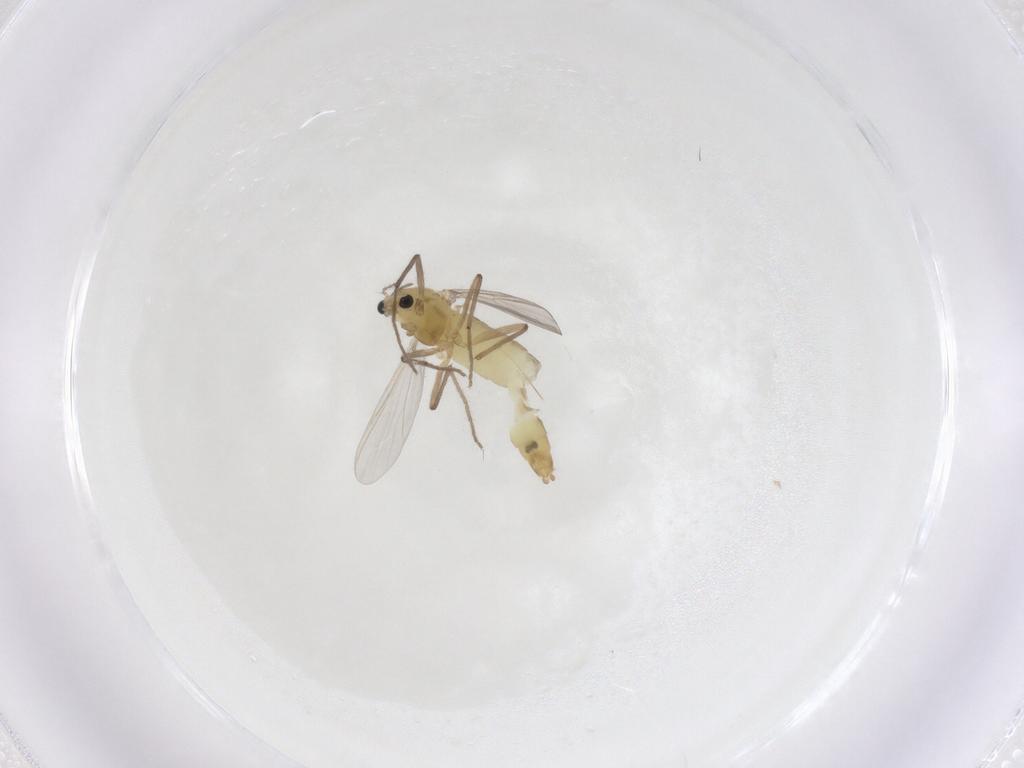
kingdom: Animalia
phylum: Arthropoda
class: Insecta
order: Diptera
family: Chironomidae
